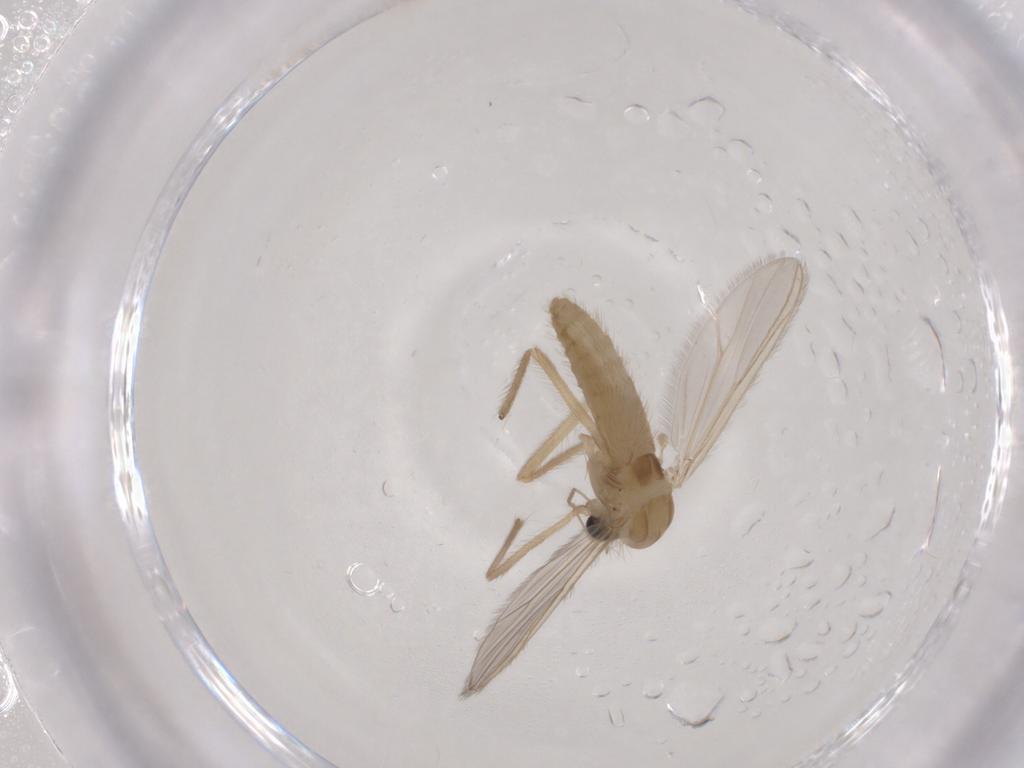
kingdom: Animalia
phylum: Arthropoda
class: Insecta
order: Diptera
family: Chironomidae
